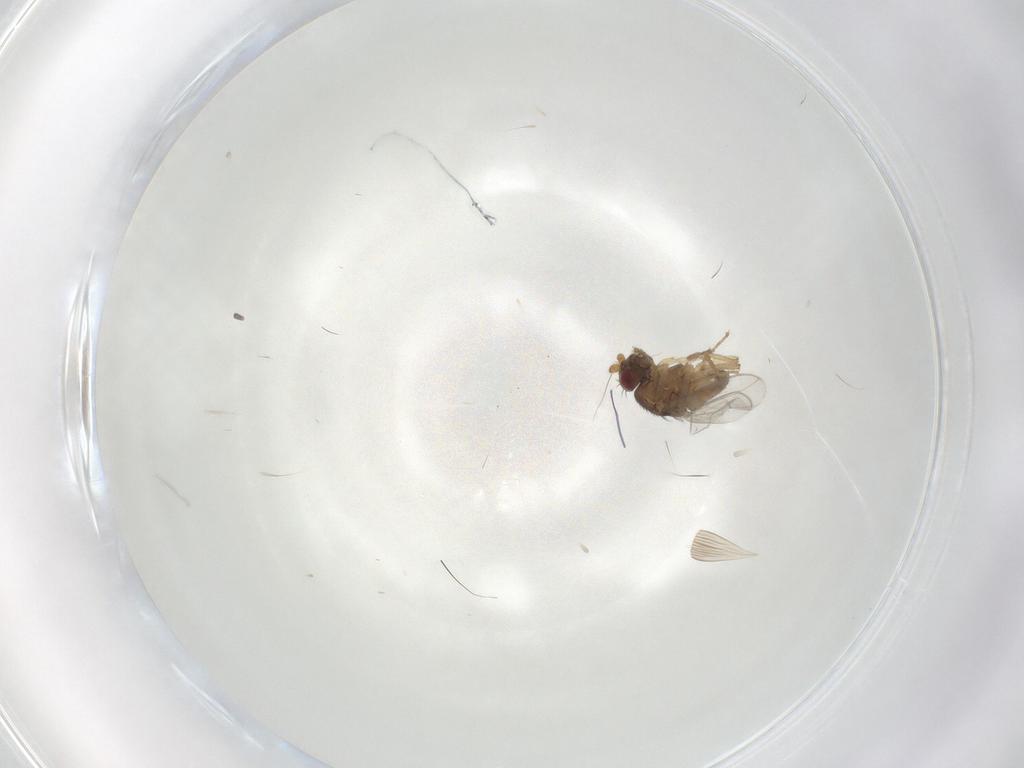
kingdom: Animalia
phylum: Arthropoda
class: Insecta
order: Diptera
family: Sphaeroceridae
